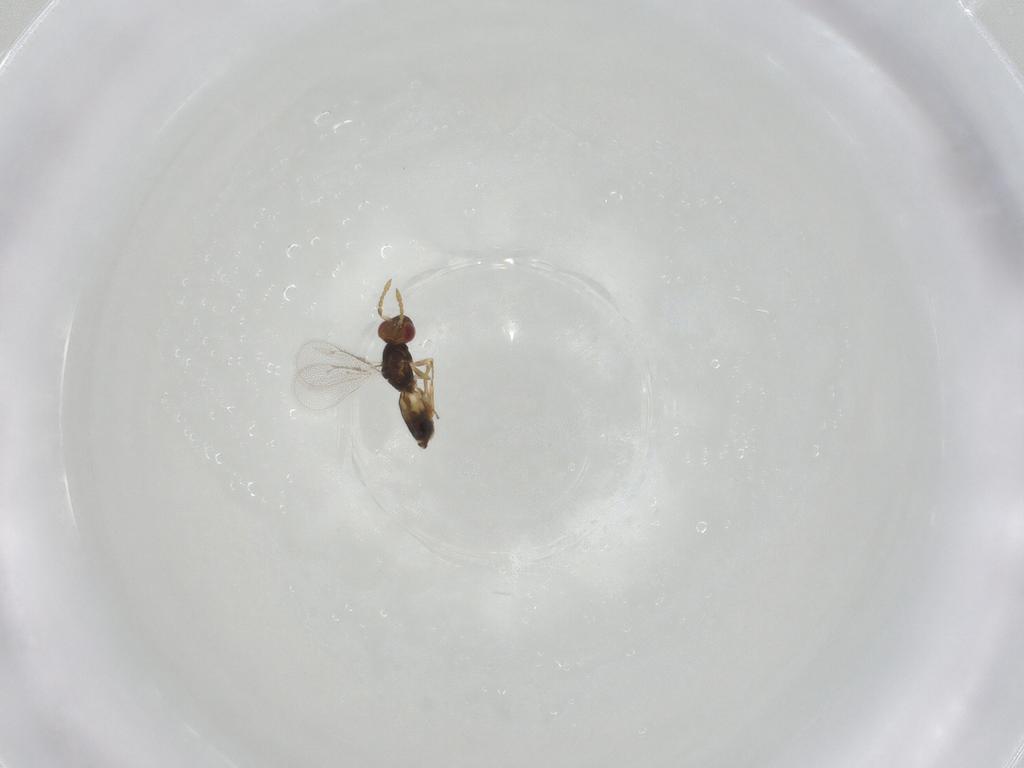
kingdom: Animalia
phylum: Arthropoda
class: Insecta
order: Hymenoptera
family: Eulophidae
